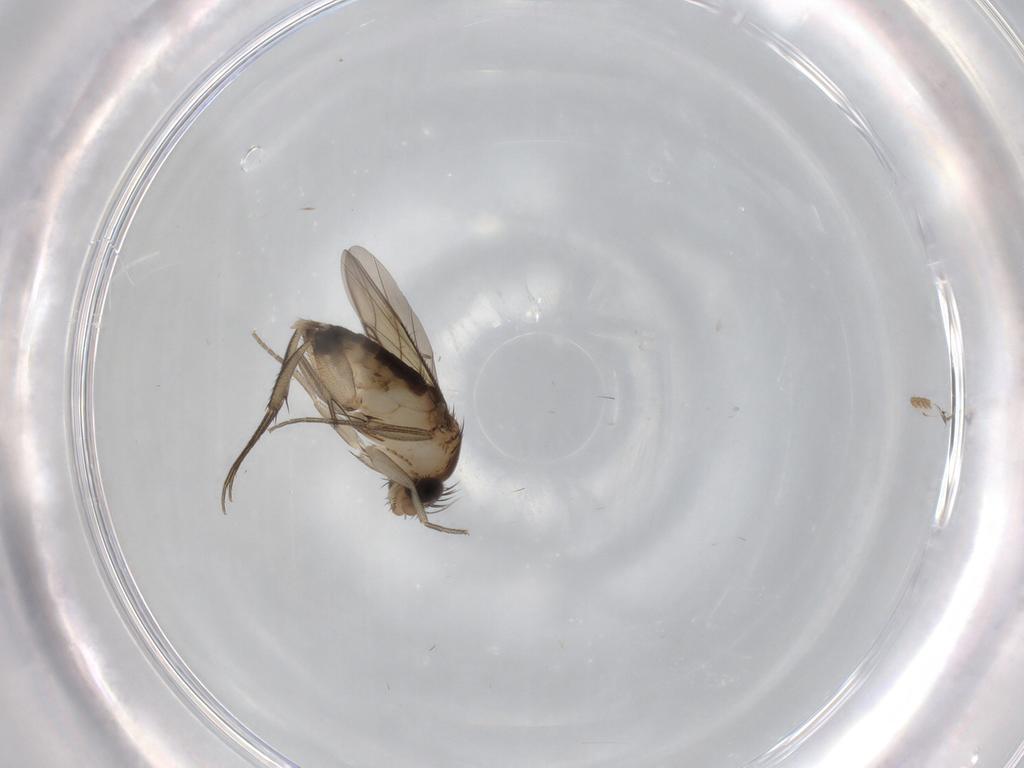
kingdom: Animalia
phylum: Arthropoda
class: Insecta
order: Diptera
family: Phoridae
